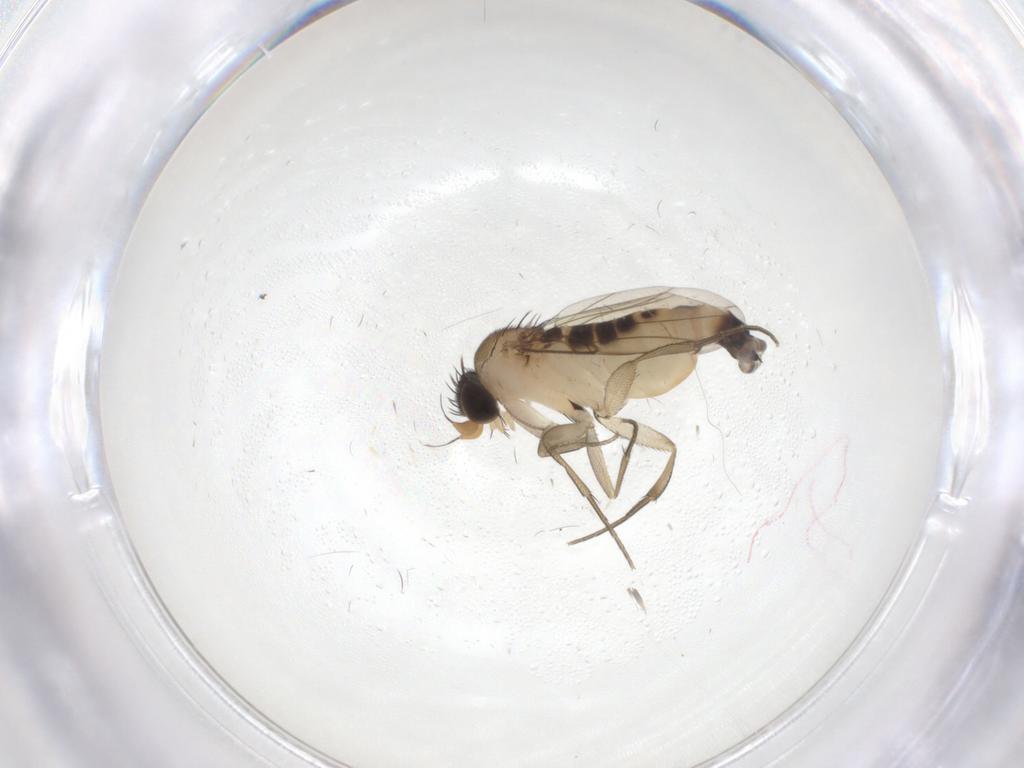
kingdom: Animalia
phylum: Arthropoda
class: Insecta
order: Diptera
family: Phoridae
